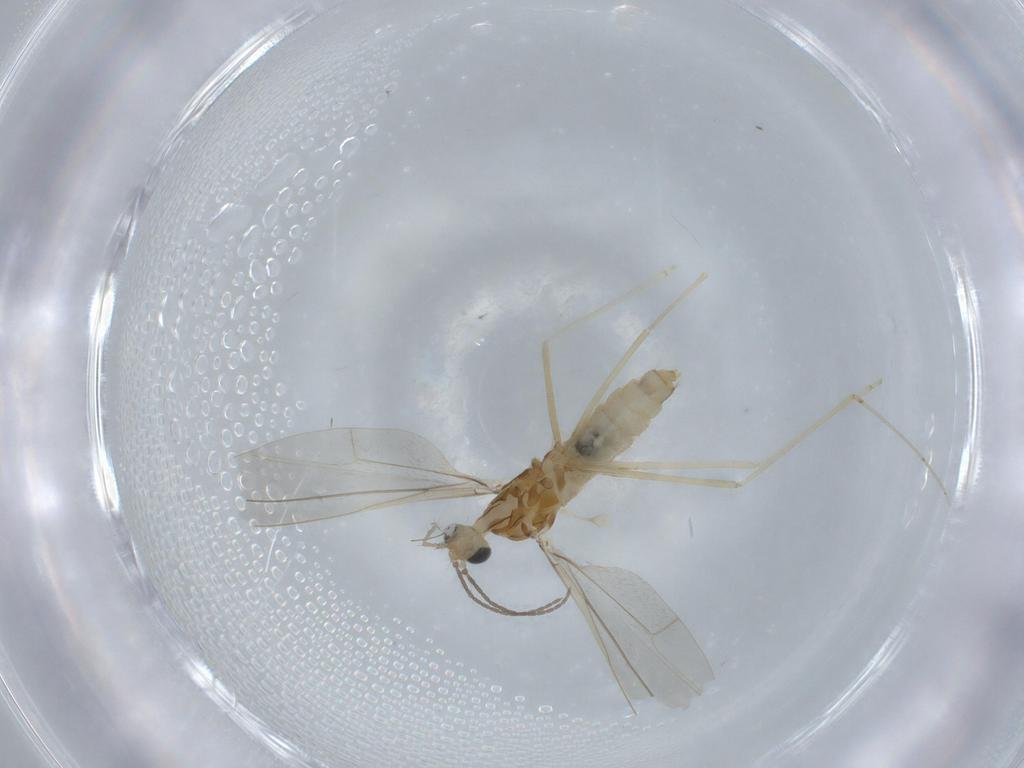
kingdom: Animalia
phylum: Arthropoda
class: Insecta
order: Diptera
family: Cecidomyiidae
